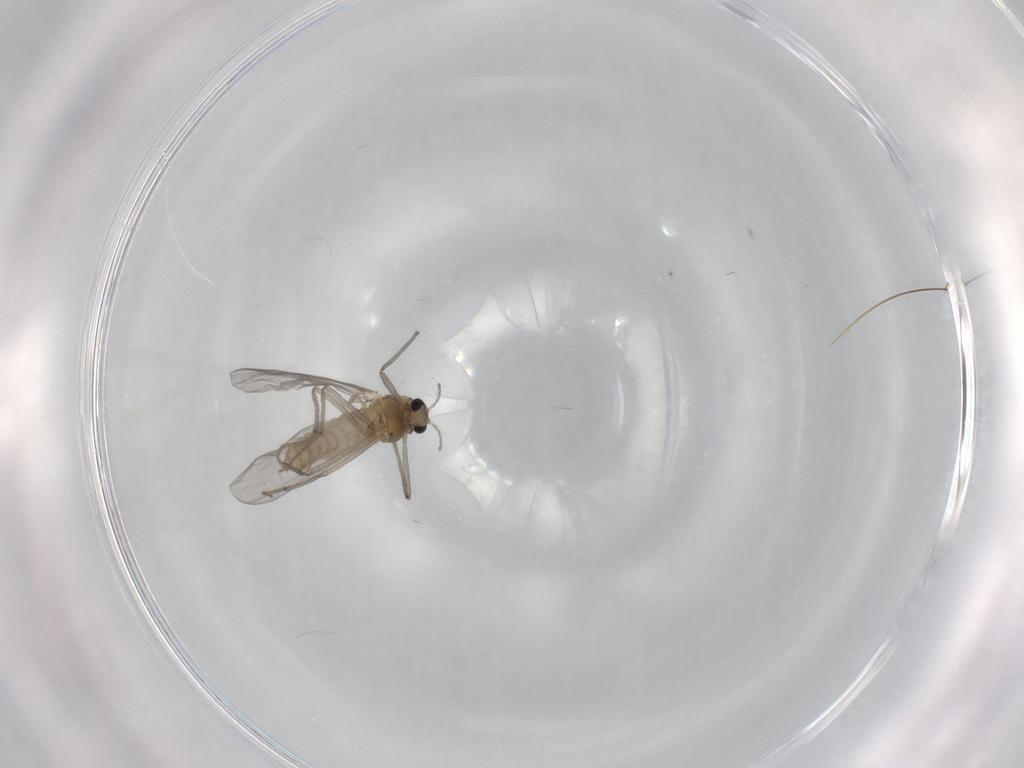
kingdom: Animalia
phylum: Arthropoda
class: Insecta
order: Diptera
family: Chironomidae
